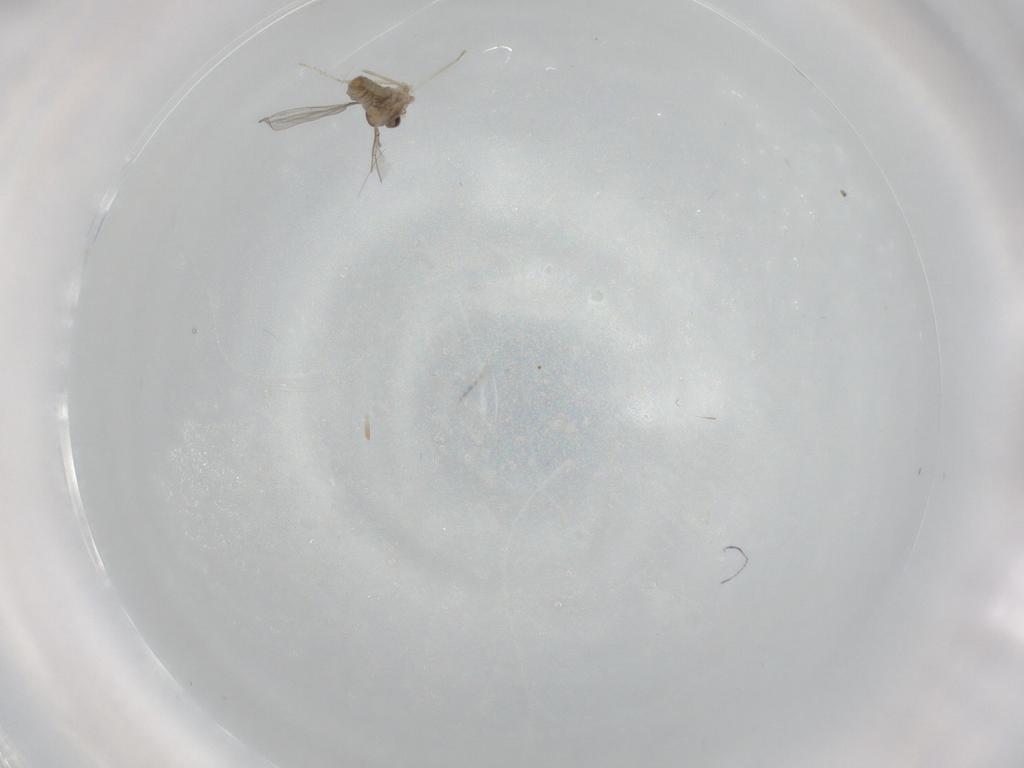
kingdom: Animalia
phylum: Arthropoda
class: Insecta
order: Diptera
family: Cecidomyiidae
